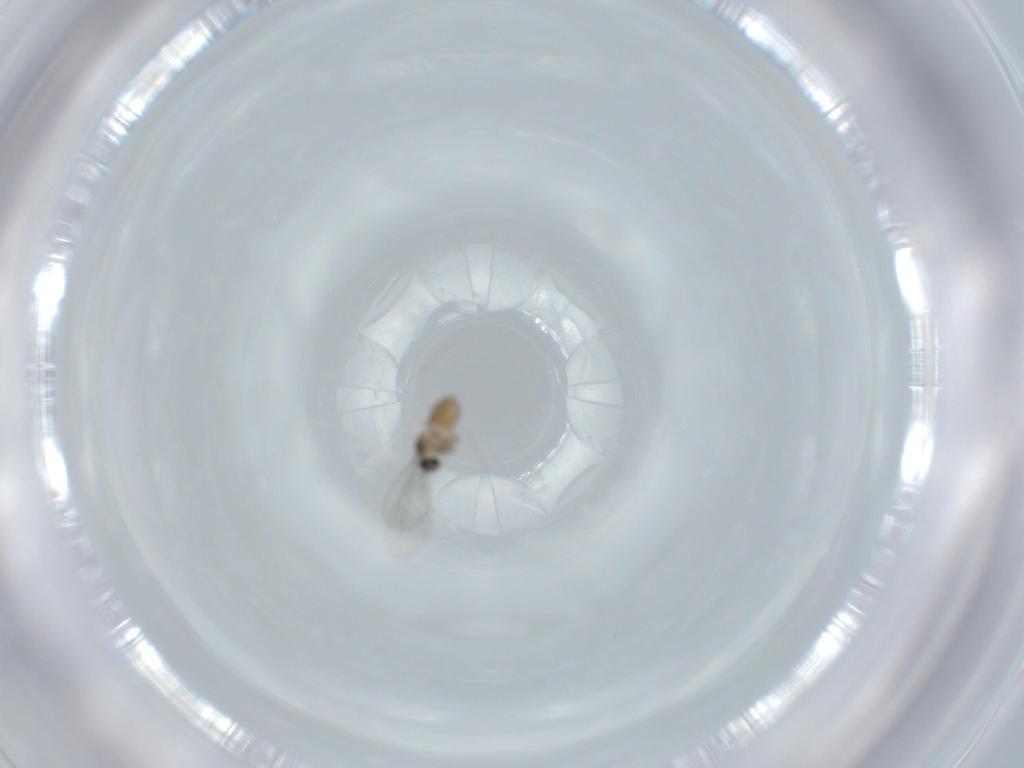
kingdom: Animalia
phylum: Arthropoda
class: Insecta
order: Diptera
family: Cecidomyiidae
